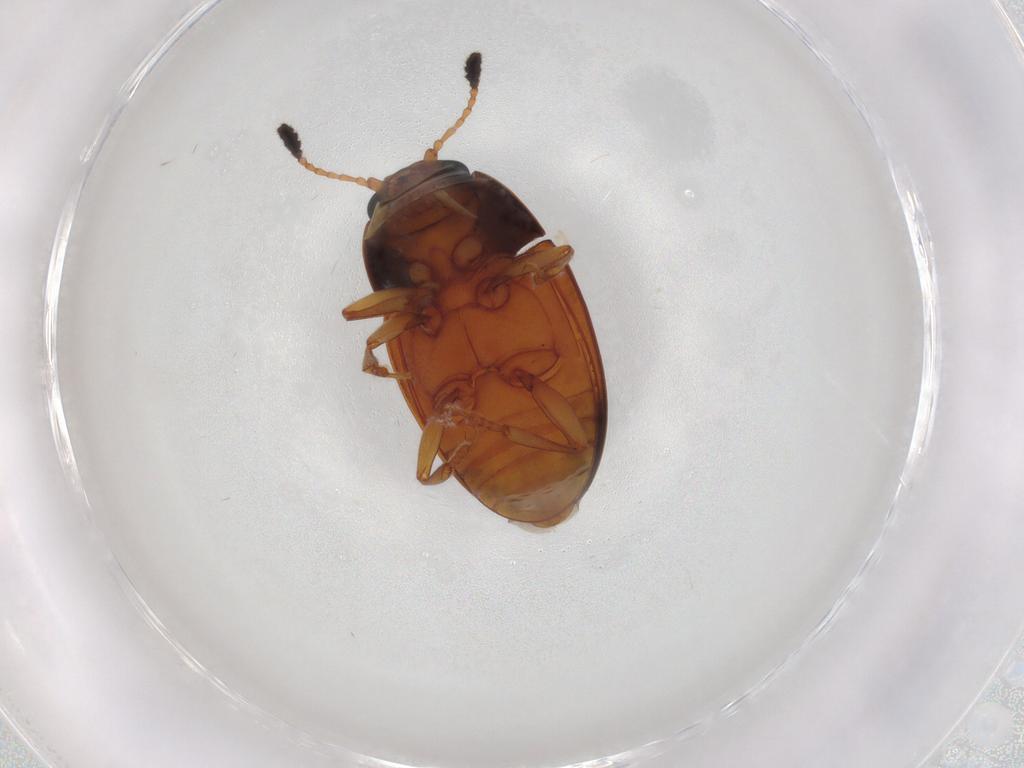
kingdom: Animalia
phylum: Arthropoda
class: Insecta
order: Coleoptera
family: Erotylidae
